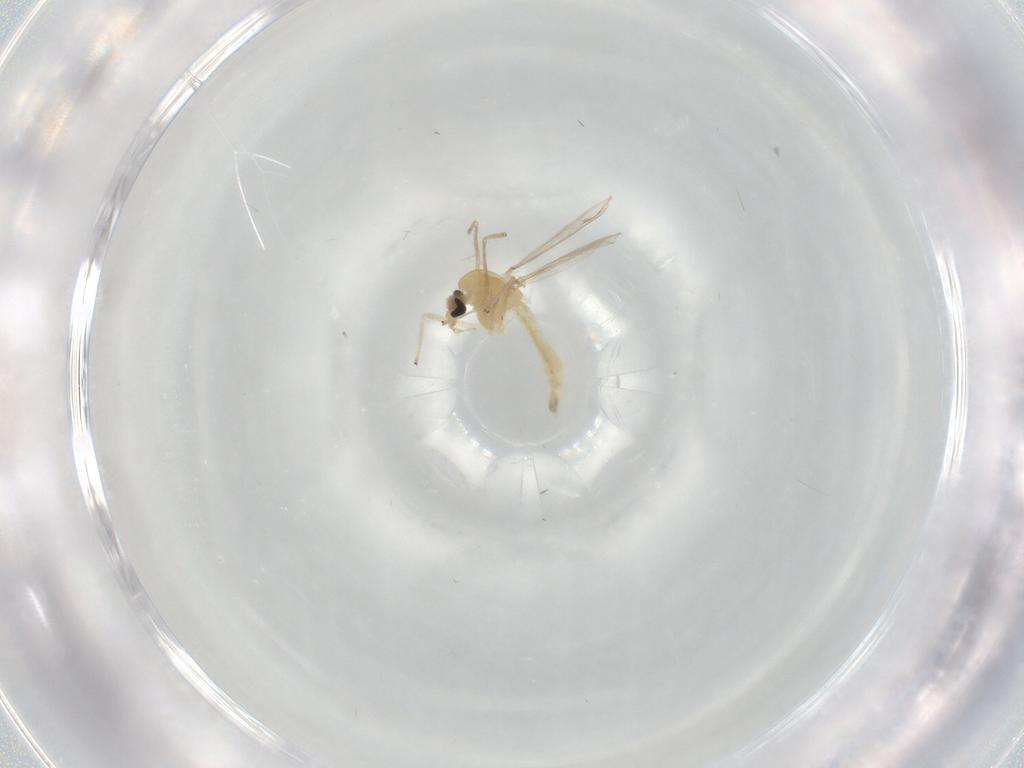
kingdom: Animalia
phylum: Arthropoda
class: Insecta
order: Diptera
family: Chironomidae
